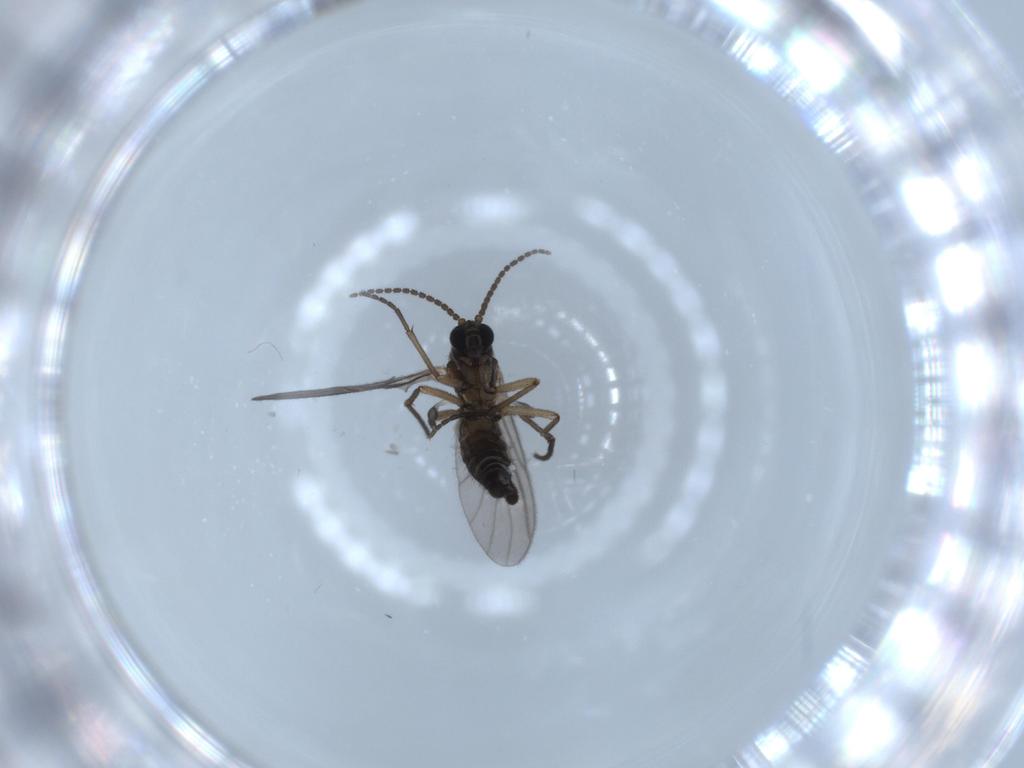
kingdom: Animalia
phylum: Arthropoda
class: Insecta
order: Diptera
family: Sciaridae
